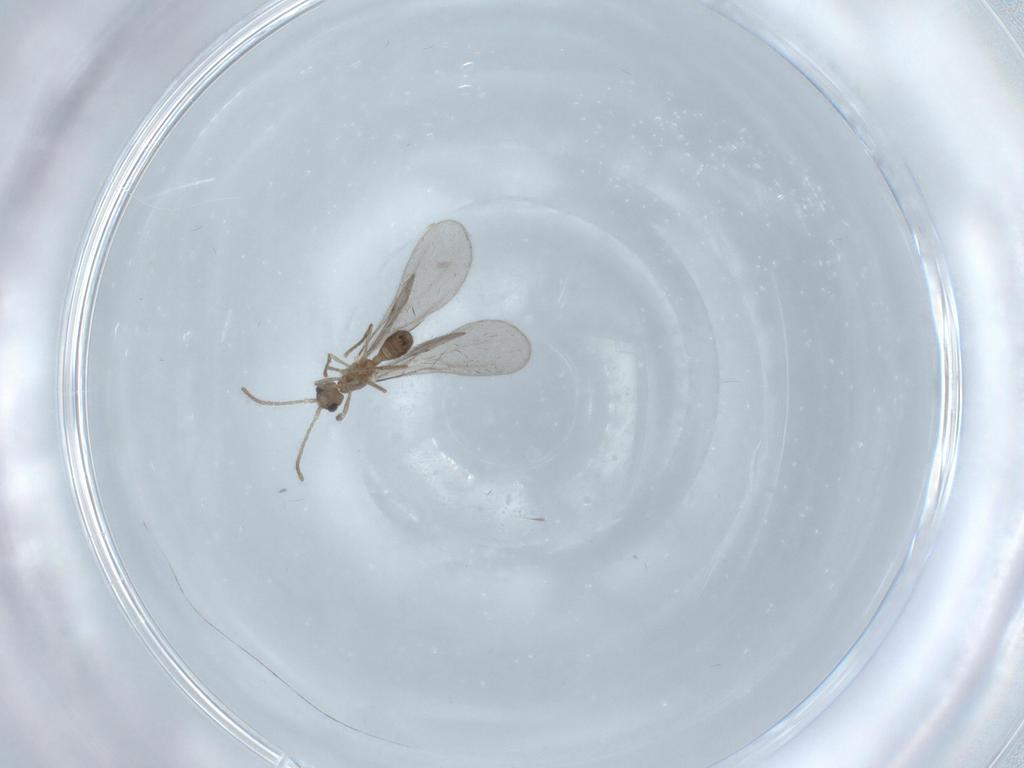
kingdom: Animalia
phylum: Arthropoda
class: Insecta
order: Hymenoptera
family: Formicidae
